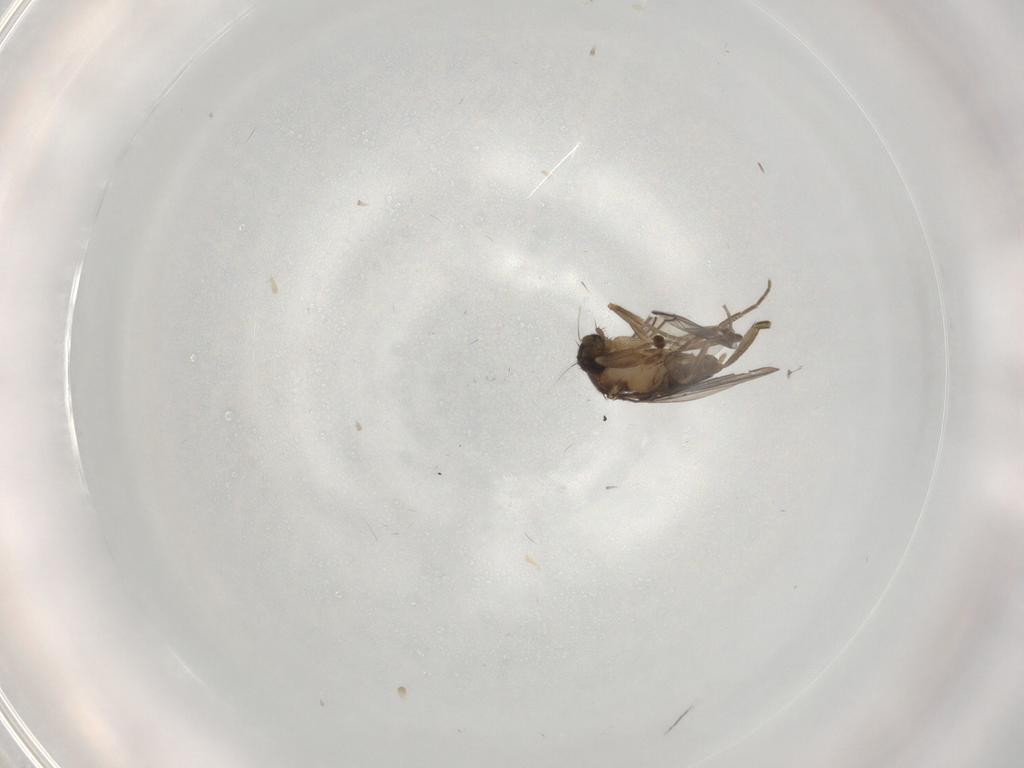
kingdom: Animalia
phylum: Arthropoda
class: Insecta
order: Diptera
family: Phoridae
